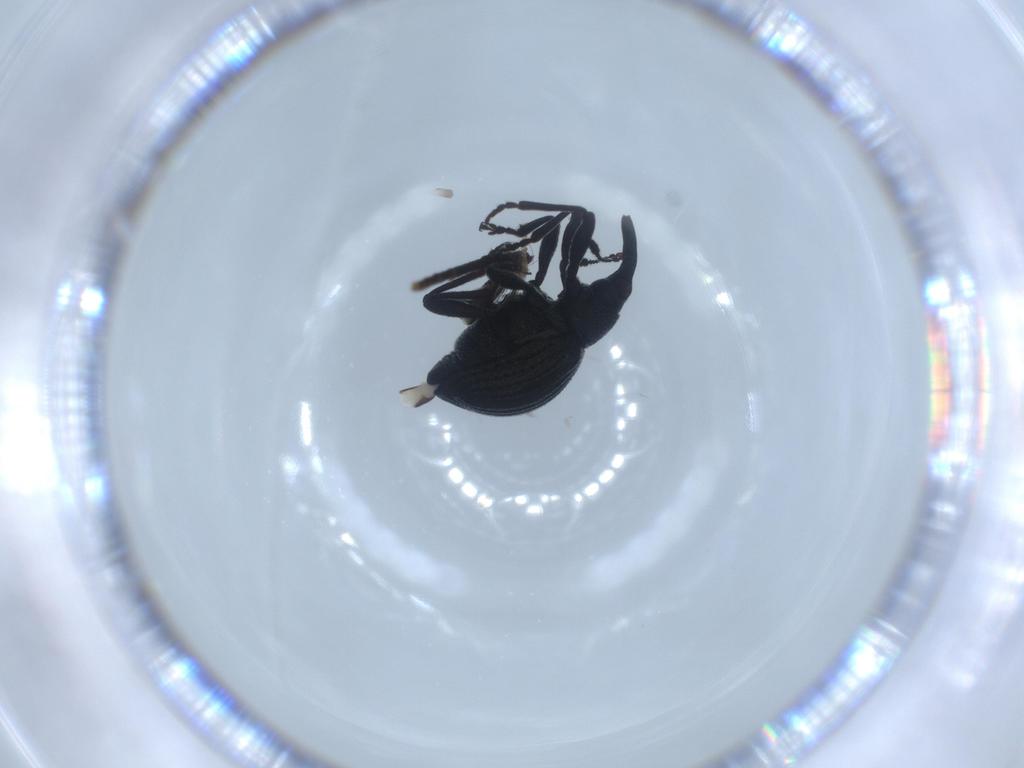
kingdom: Animalia
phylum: Arthropoda
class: Insecta
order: Coleoptera
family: Brentidae
